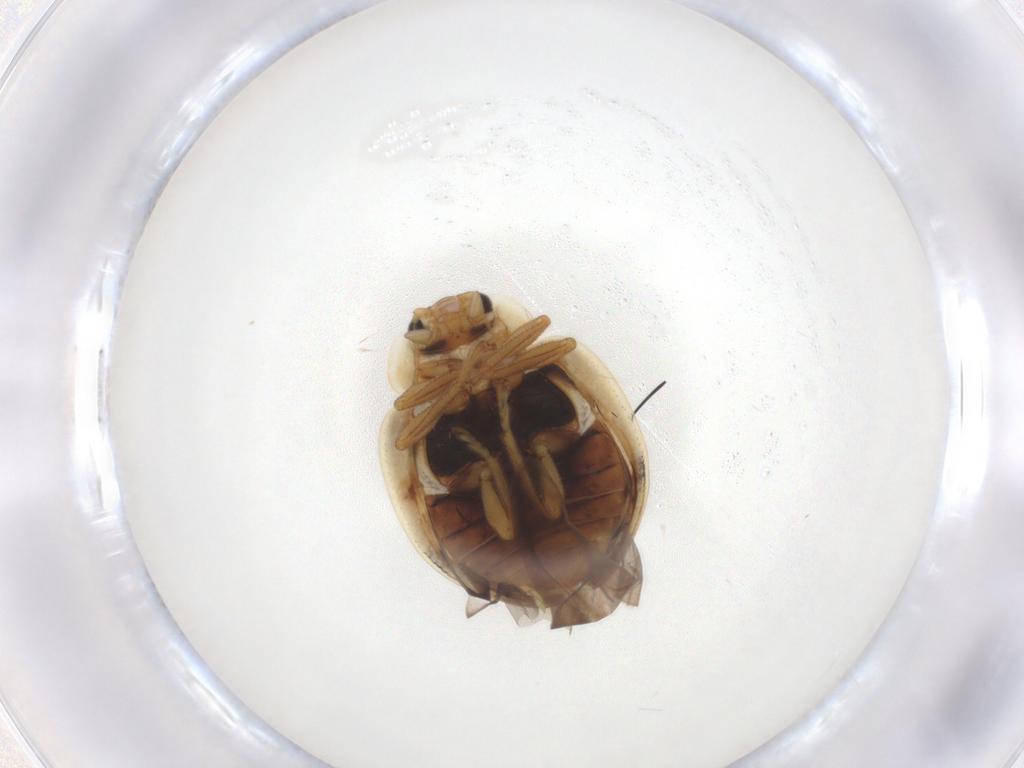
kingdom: Animalia
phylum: Arthropoda
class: Insecta
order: Coleoptera
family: Coccinellidae
